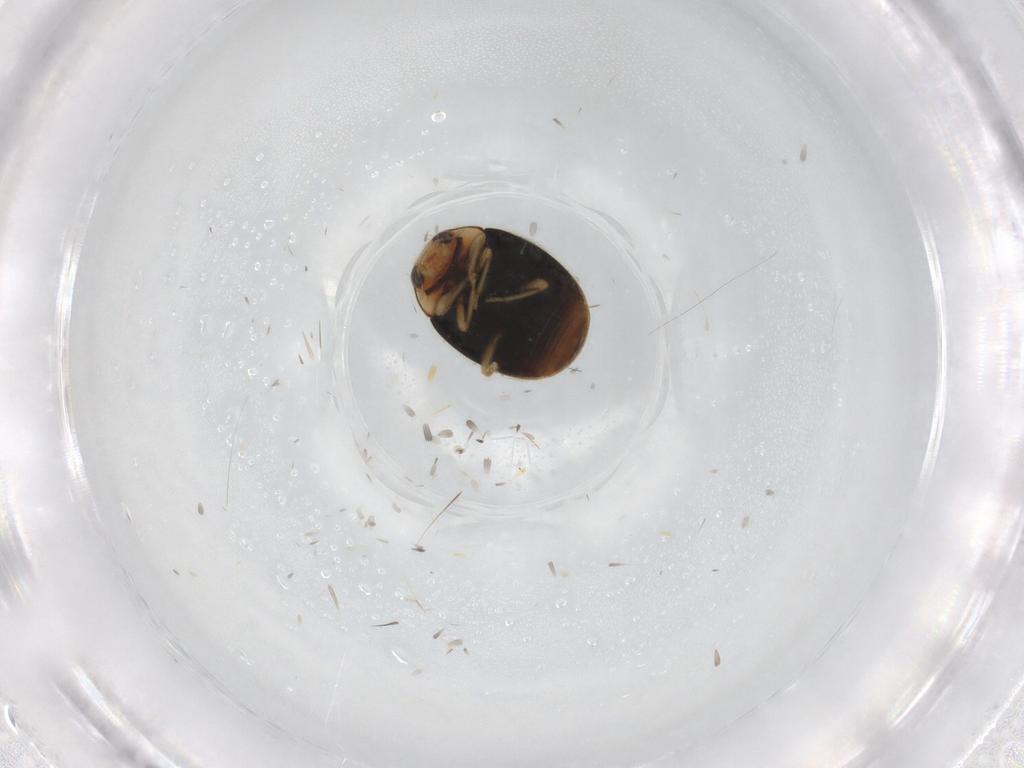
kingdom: Animalia
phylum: Arthropoda
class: Insecta
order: Coleoptera
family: Coccinellidae
